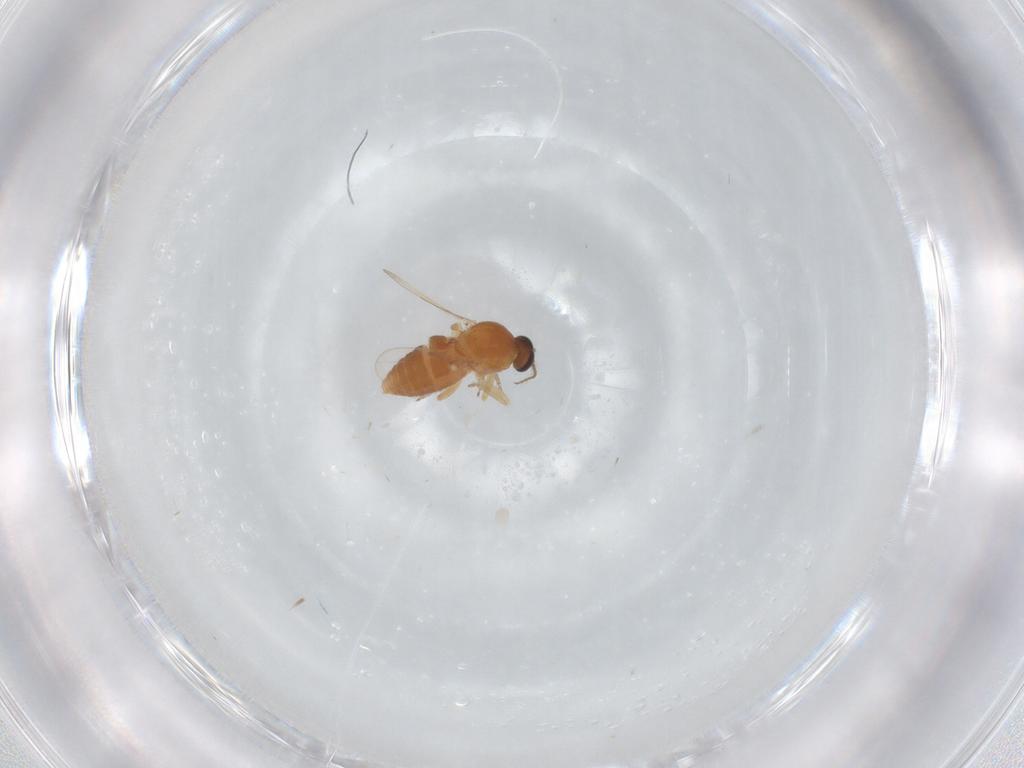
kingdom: Animalia
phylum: Arthropoda
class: Insecta
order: Diptera
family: Ceratopogonidae
